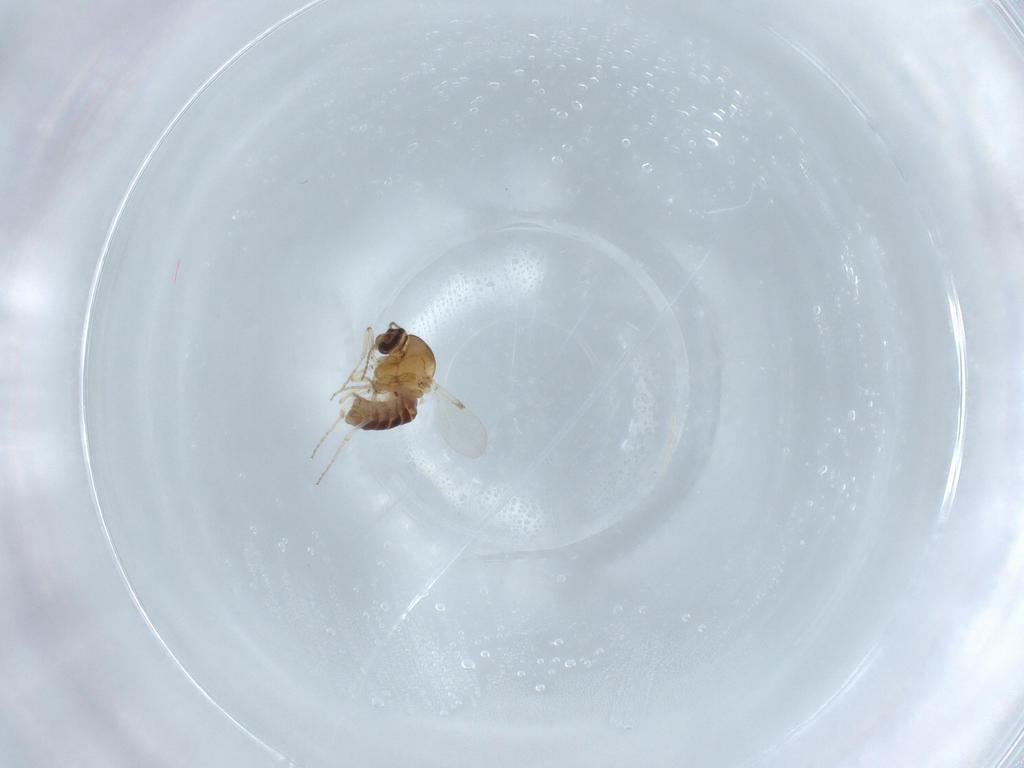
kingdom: Animalia
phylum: Arthropoda
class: Insecta
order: Diptera
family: Ceratopogonidae
